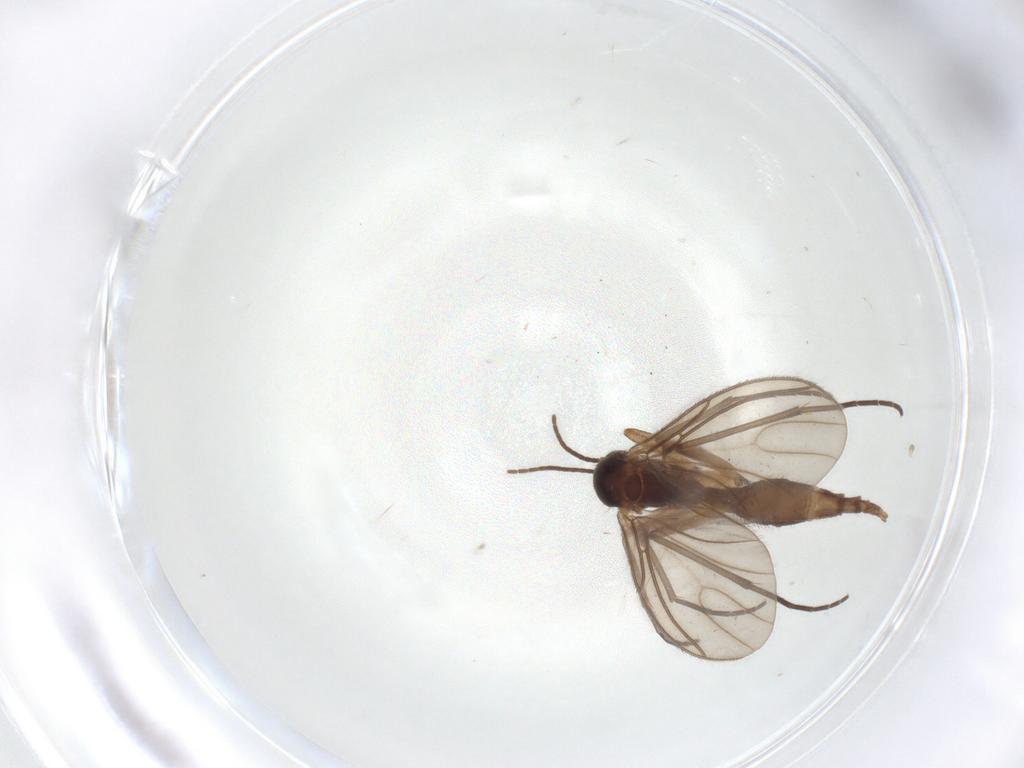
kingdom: Animalia
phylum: Arthropoda
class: Insecta
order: Diptera
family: Sciaridae
